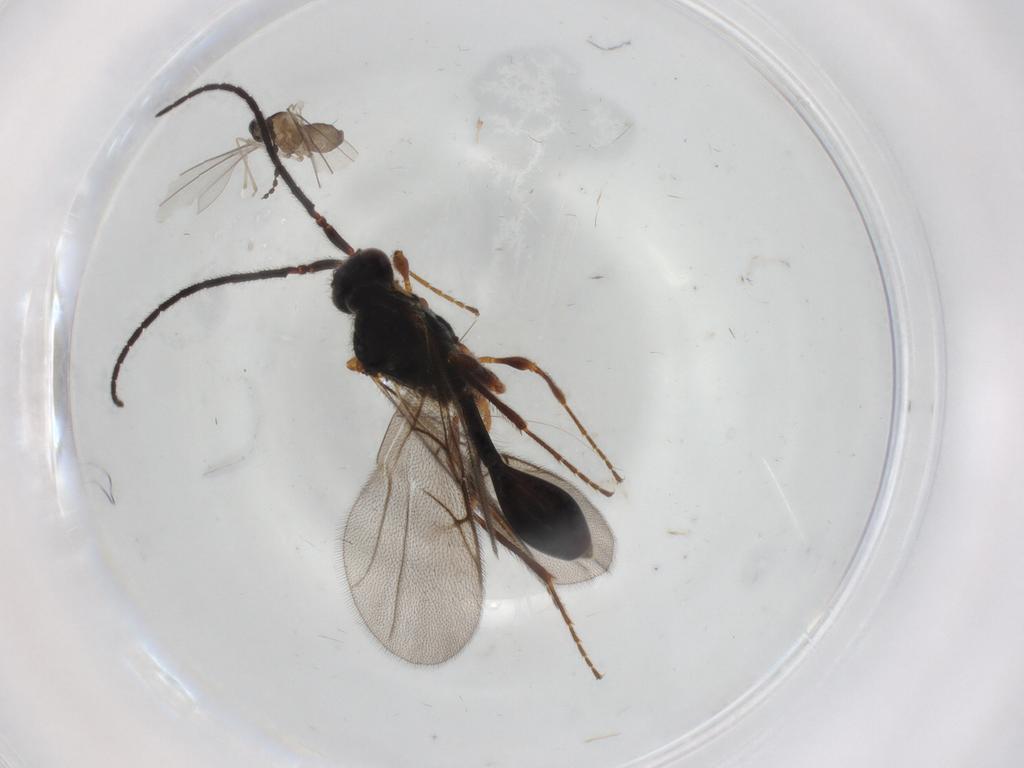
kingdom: Animalia
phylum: Arthropoda
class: Insecta
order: Diptera
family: Cecidomyiidae
